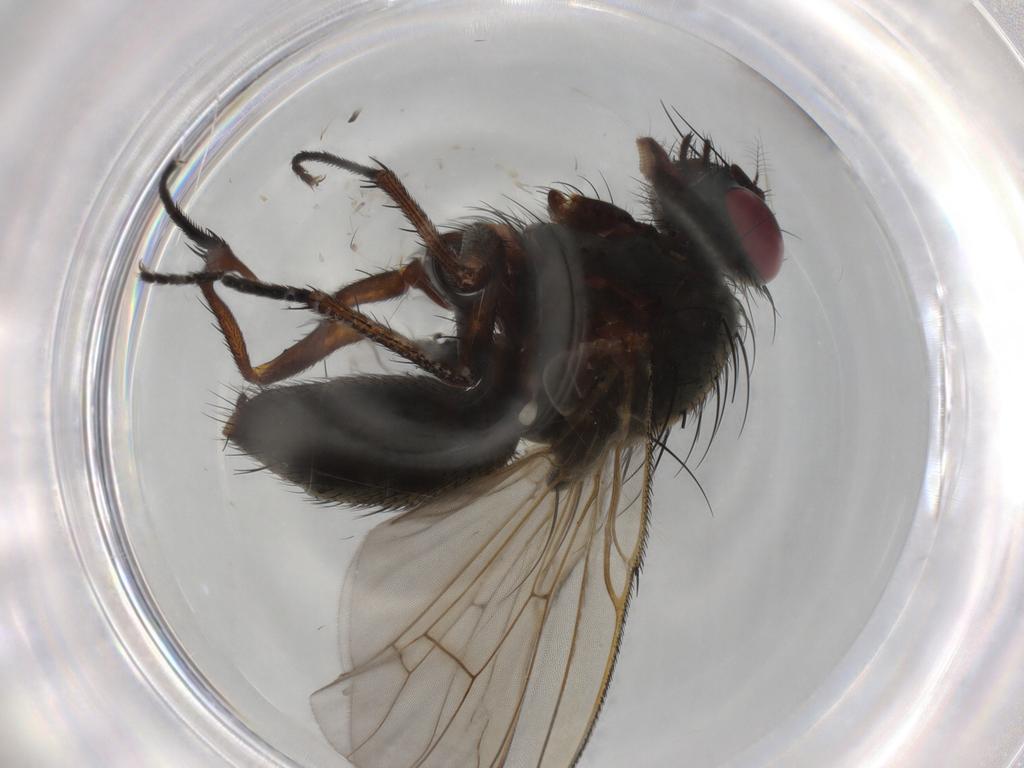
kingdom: Animalia
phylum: Arthropoda
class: Insecta
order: Diptera
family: Muscidae
